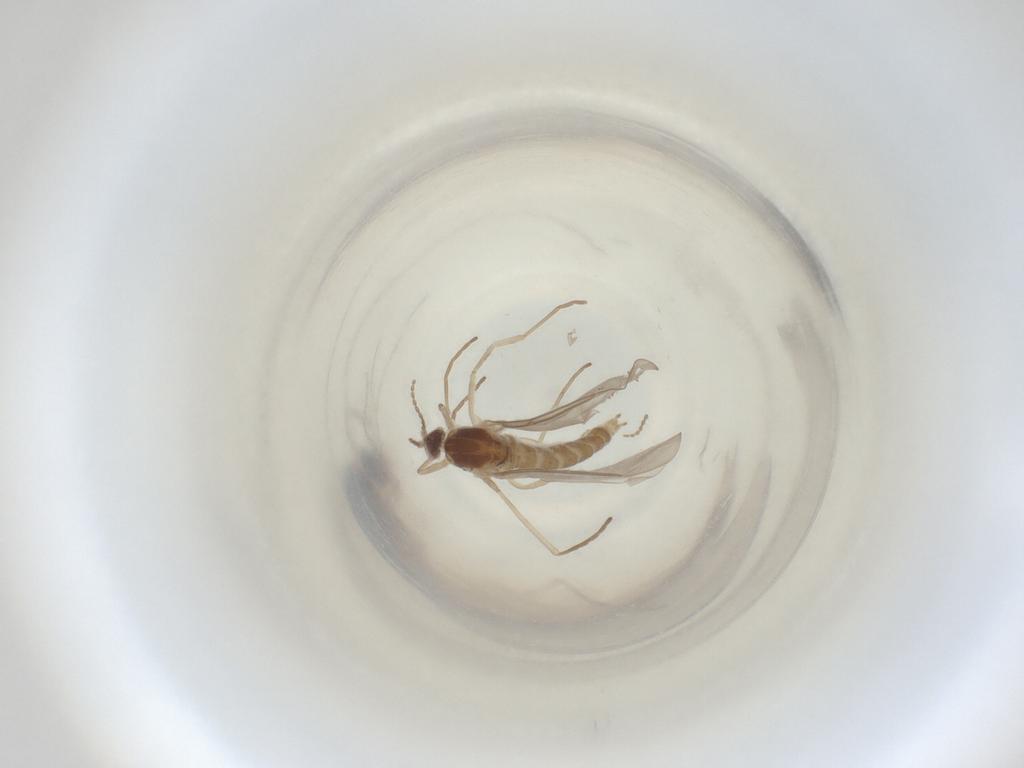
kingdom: Animalia
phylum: Arthropoda
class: Insecta
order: Diptera
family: Cecidomyiidae
